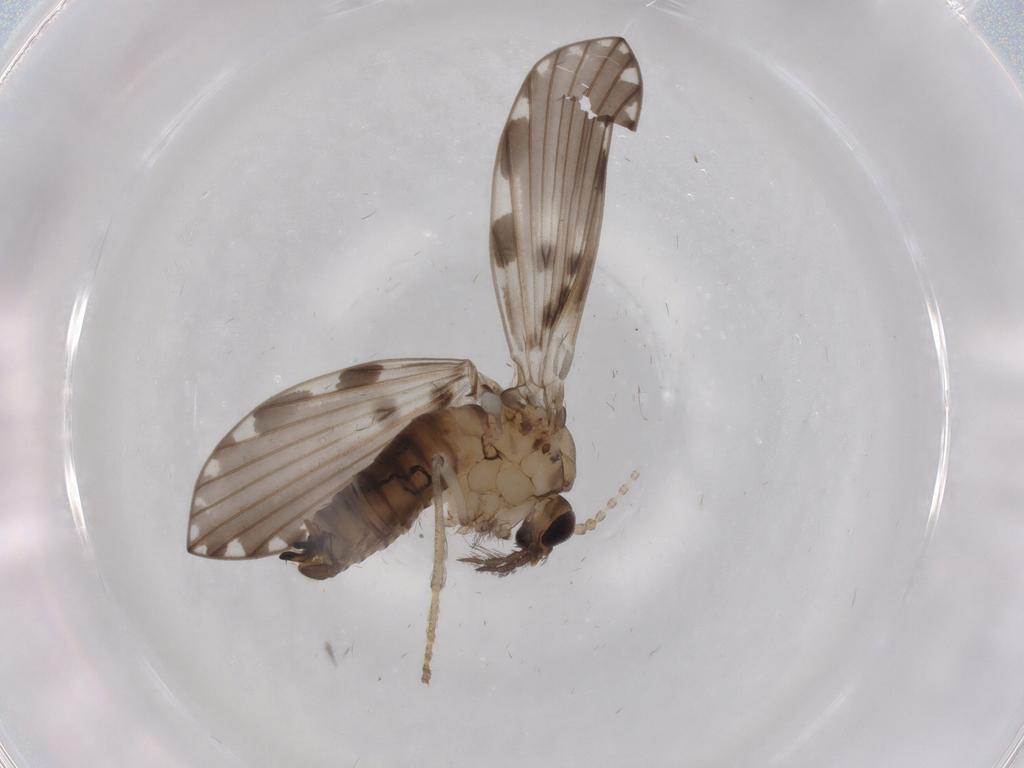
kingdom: Animalia
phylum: Arthropoda
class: Insecta
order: Diptera
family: Psychodidae
